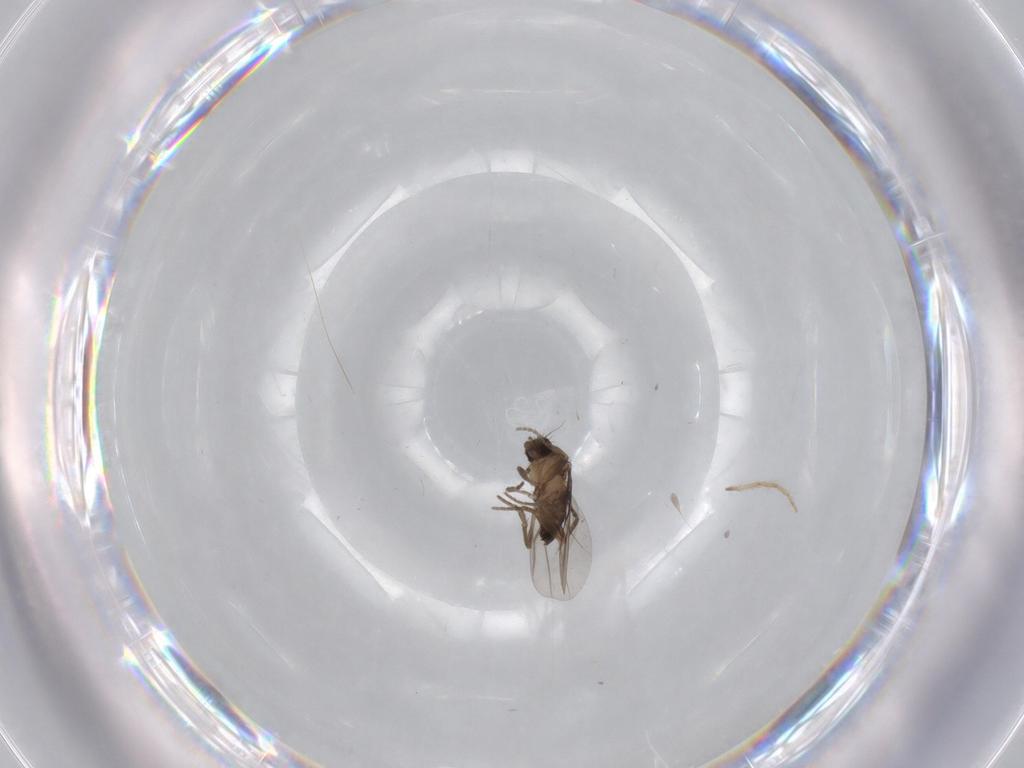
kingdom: Animalia
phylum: Arthropoda
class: Insecta
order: Diptera
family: Phoridae
